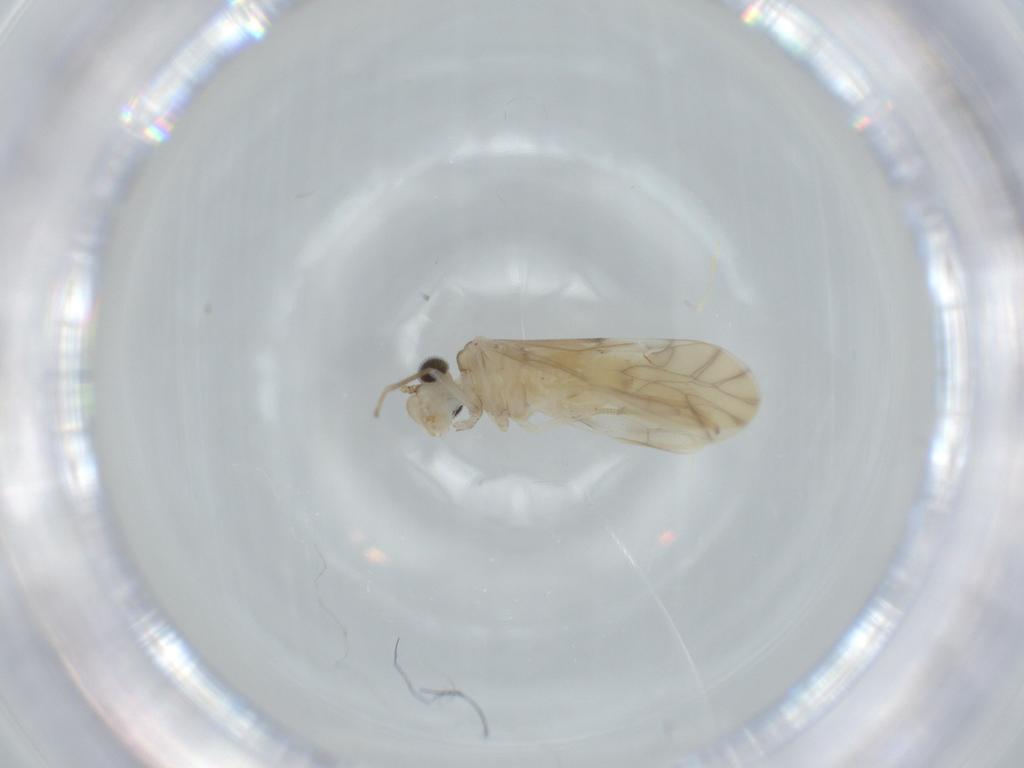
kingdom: Animalia
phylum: Arthropoda
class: Insecta
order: Psocodea
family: Caeciliusidae
